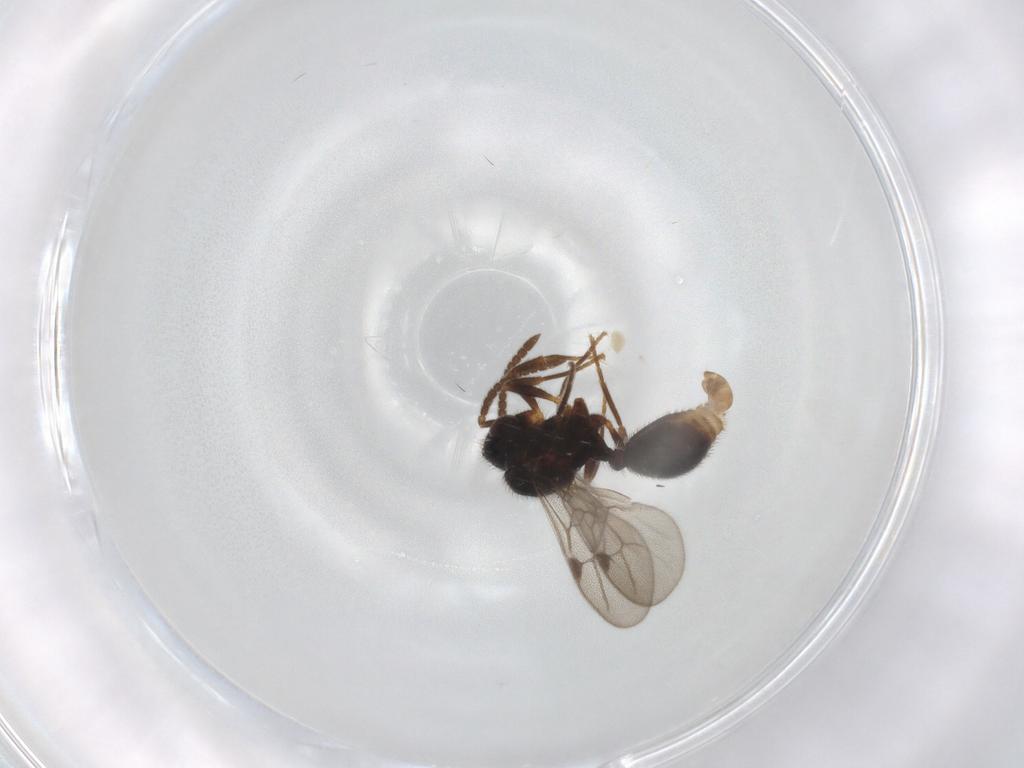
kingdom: Animalia
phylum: Arthropoda
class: Insecta
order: Hymenoptera
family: Formicidae
